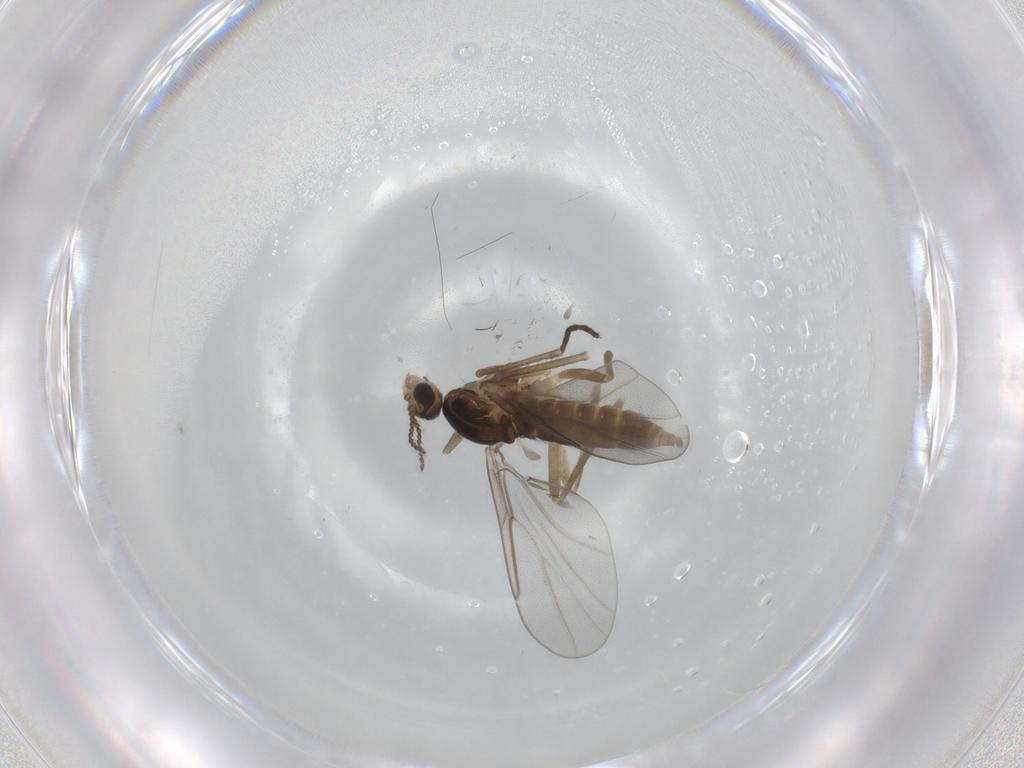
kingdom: Animalia
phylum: Arthropoda
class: Insecta
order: Diptera
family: Cecidomyiidae
